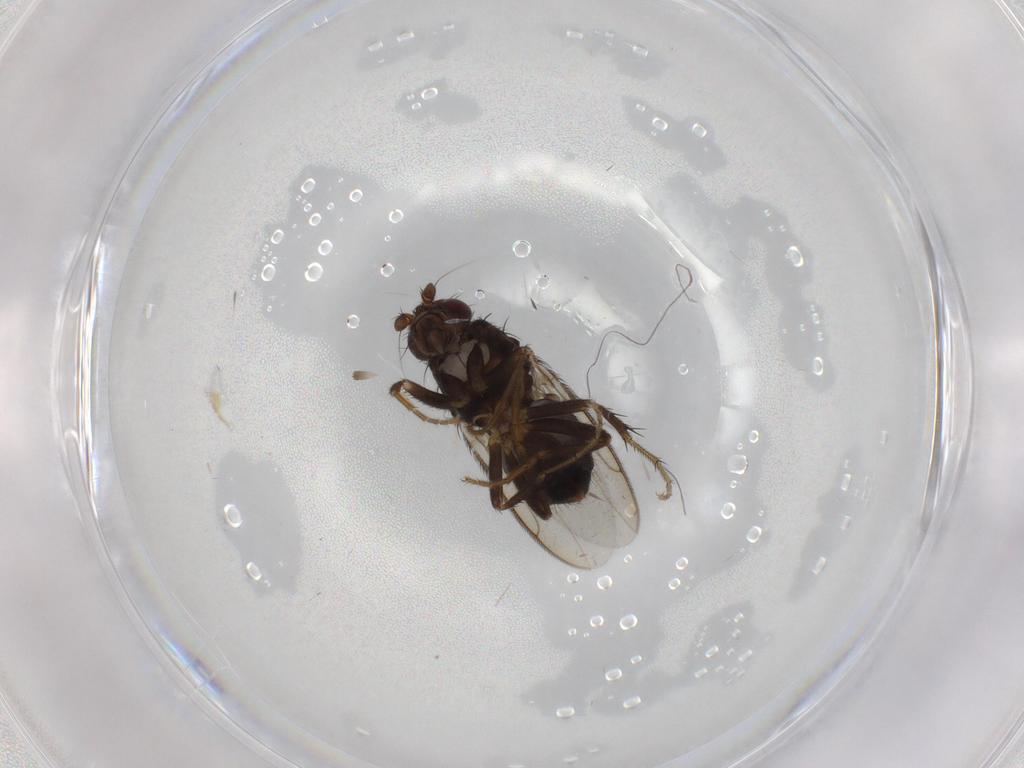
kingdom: Animalia
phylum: Arthropoda
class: Insecta
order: Diptera
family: Sphaeroceridae
